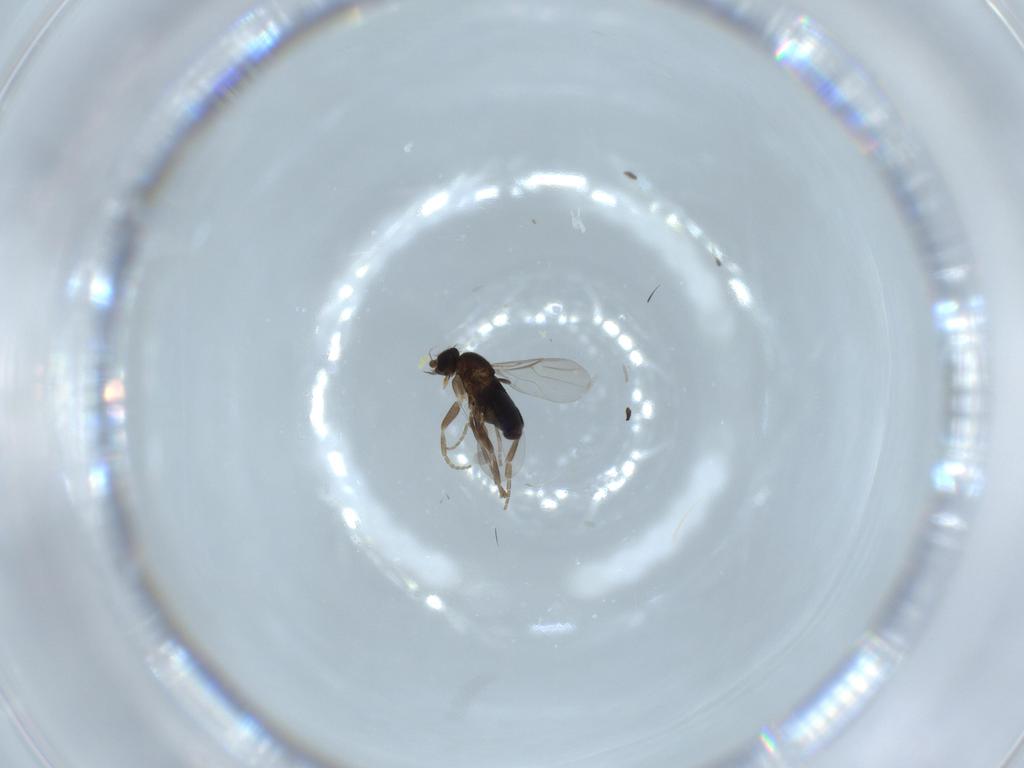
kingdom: Animalia
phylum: Arthropoda
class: Insecta
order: Diptera
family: Phoridae
